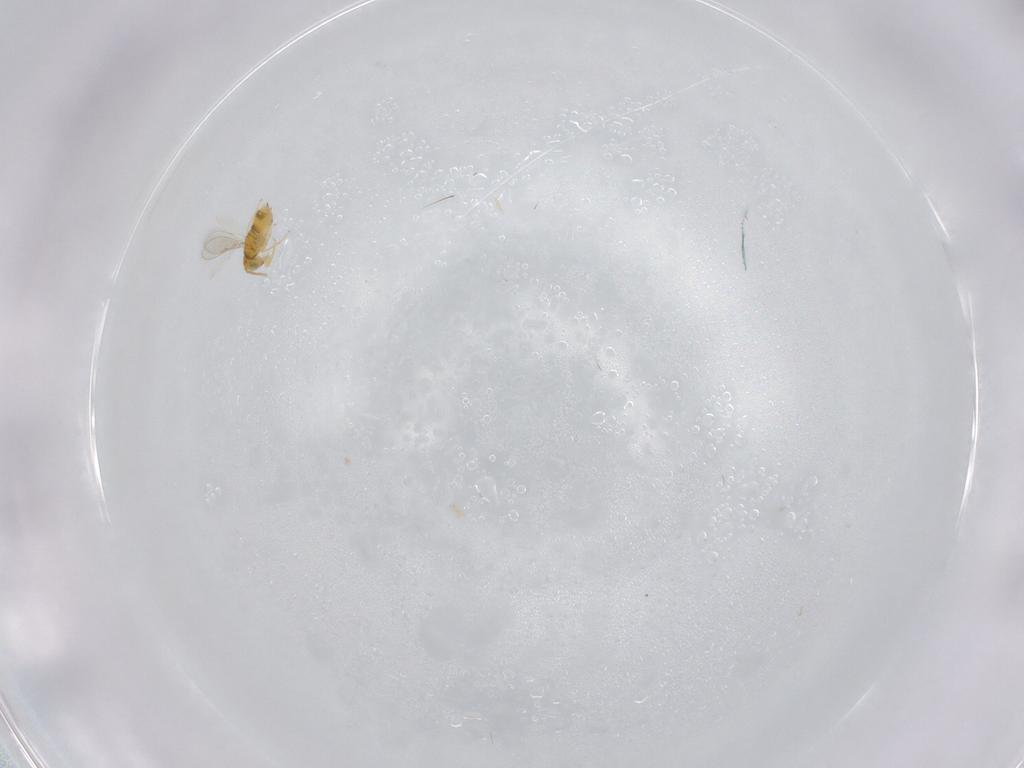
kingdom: Animalia
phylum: Arthropoda
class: Insecta
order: Hymenoptera
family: Aphelinidae
